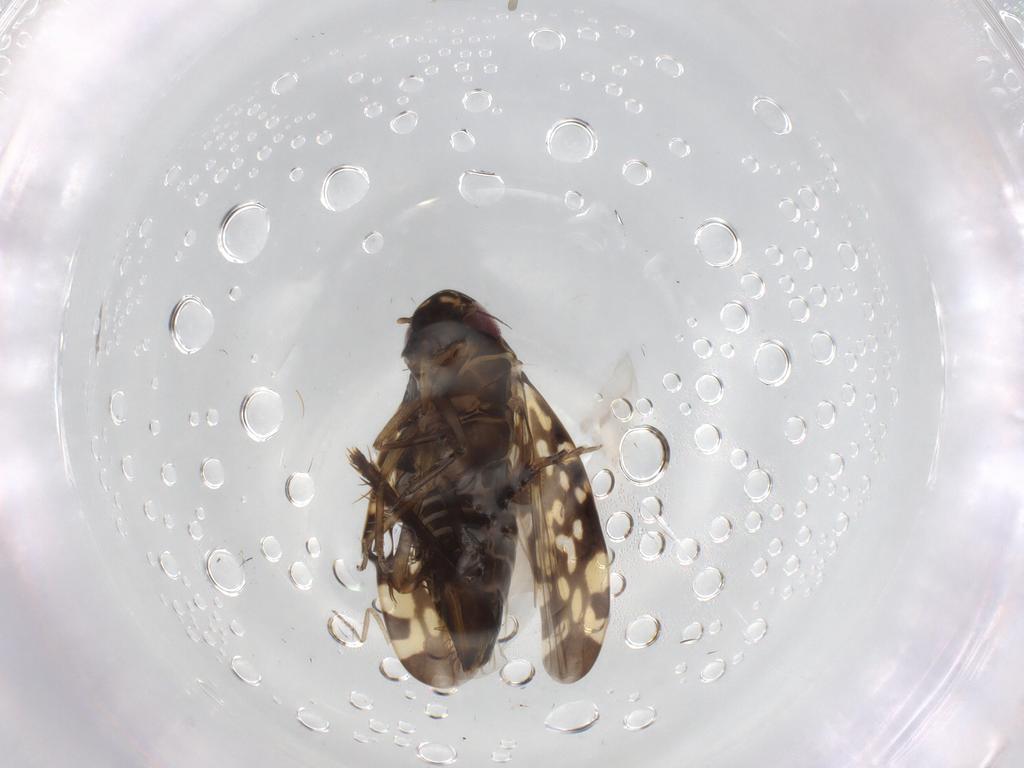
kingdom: Animalia
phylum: Arthropoda
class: Insecta
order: Hemiptera
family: Cicadellidae
